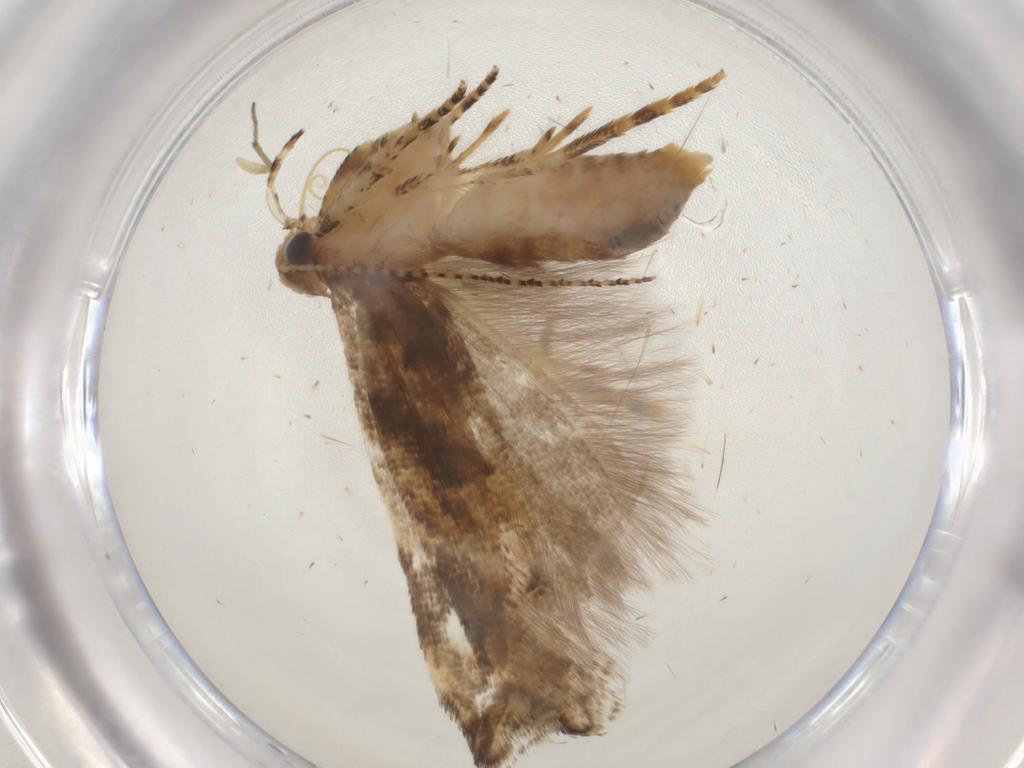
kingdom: Animalia
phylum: Arthropoda
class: Insecta
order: Lepidoptera
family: Gelechiidae
